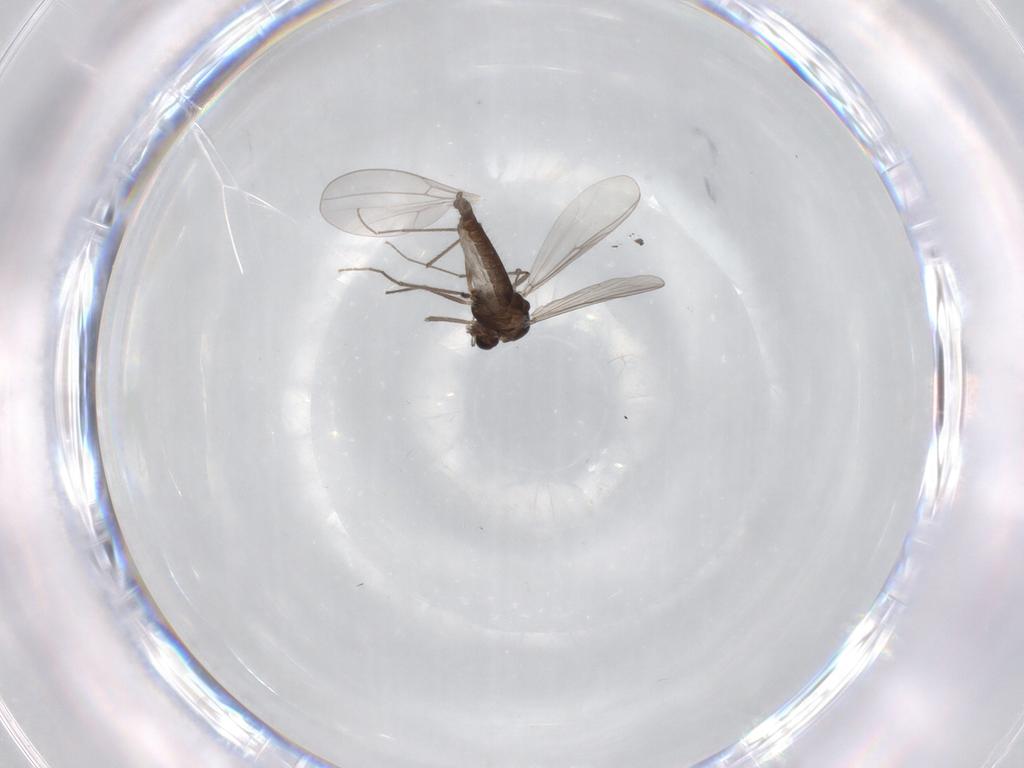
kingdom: Animalia
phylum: Arthropoda
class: Insecta
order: Diptera
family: Chironomidae
